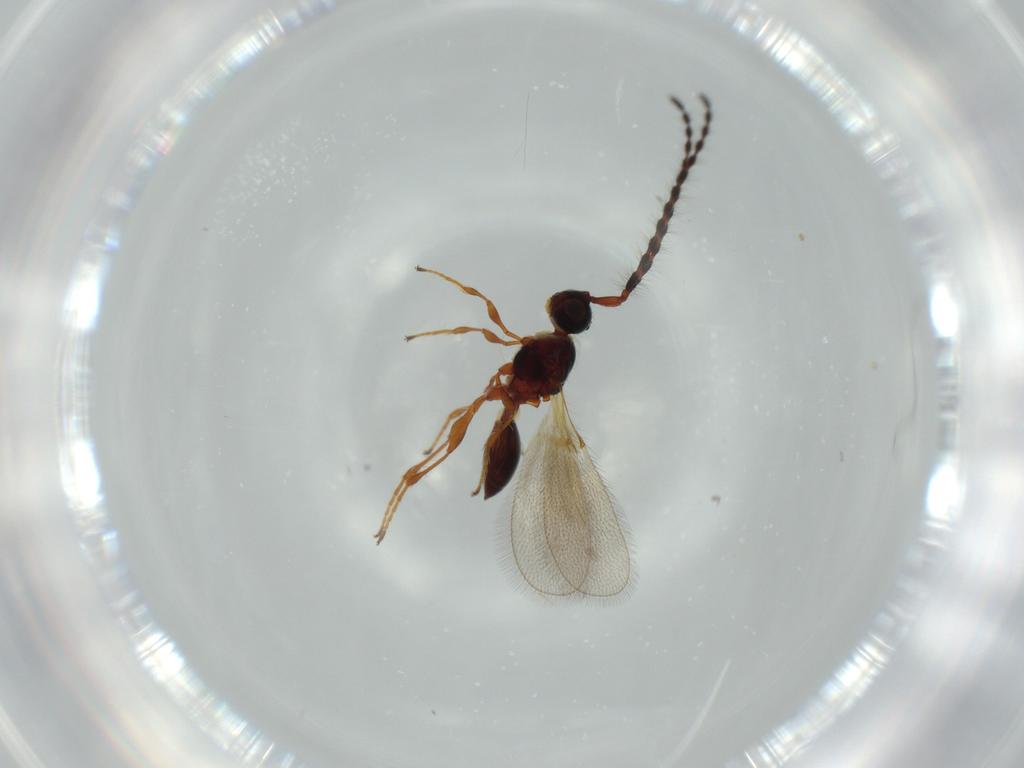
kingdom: Animalia
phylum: Arthropoda
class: Insecta
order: Hymenoptera
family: Diapriidae
